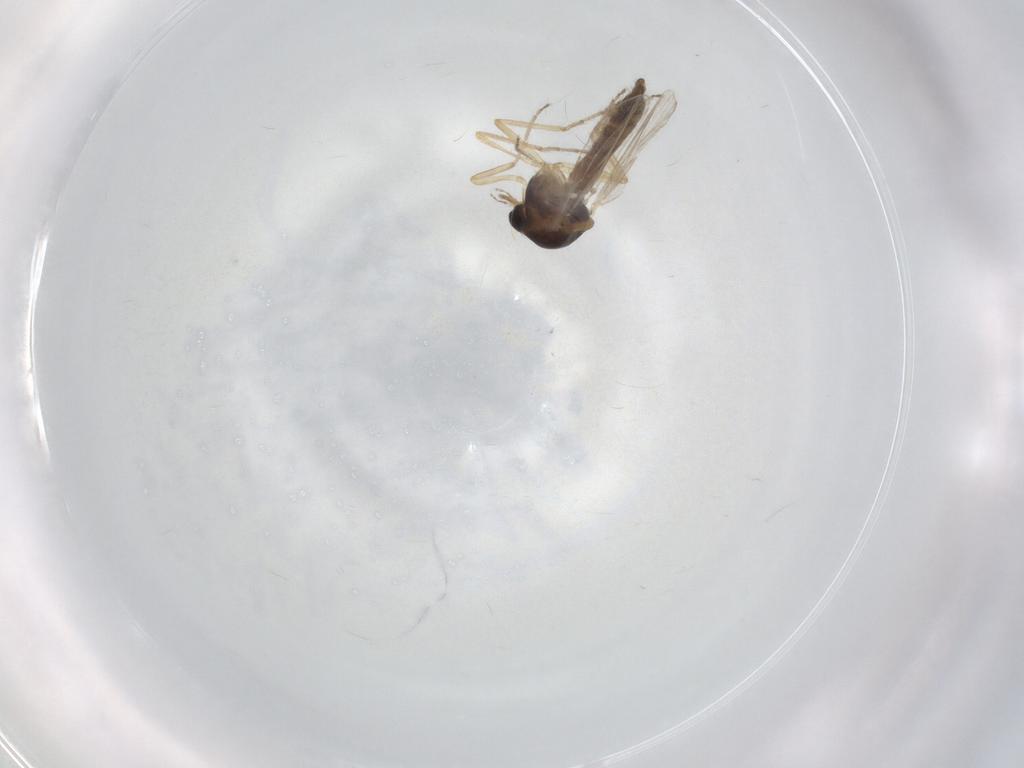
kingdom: Animalia
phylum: Arthropoda
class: Insecta
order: Diptera
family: Ceratopogonidae
